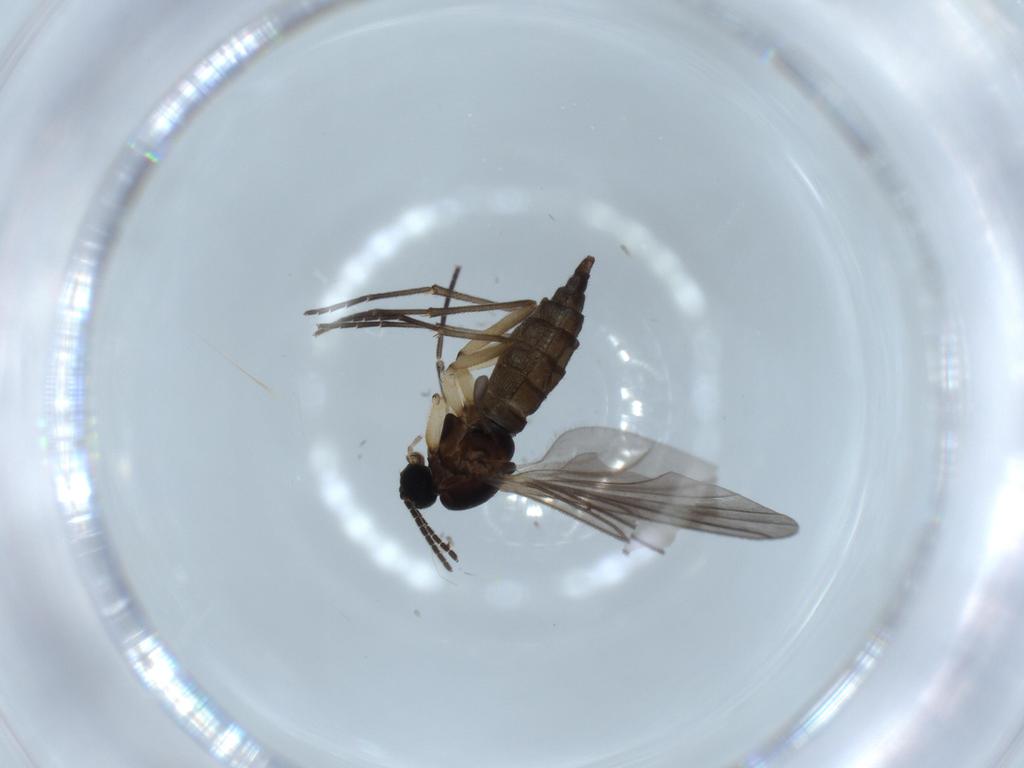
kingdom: Animalia
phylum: Arthropoda
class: Insecta
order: Diptera
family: Sciaridae
